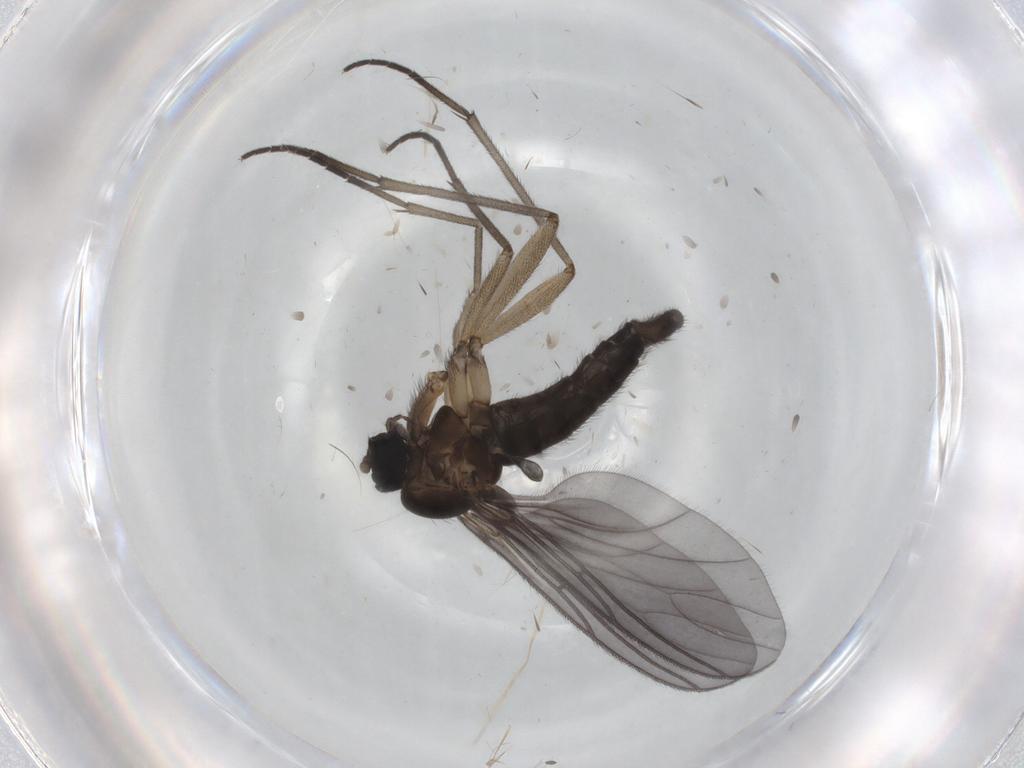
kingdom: Animalia
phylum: Arthropoda
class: Insecta
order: Diptera
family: Sciaridae
